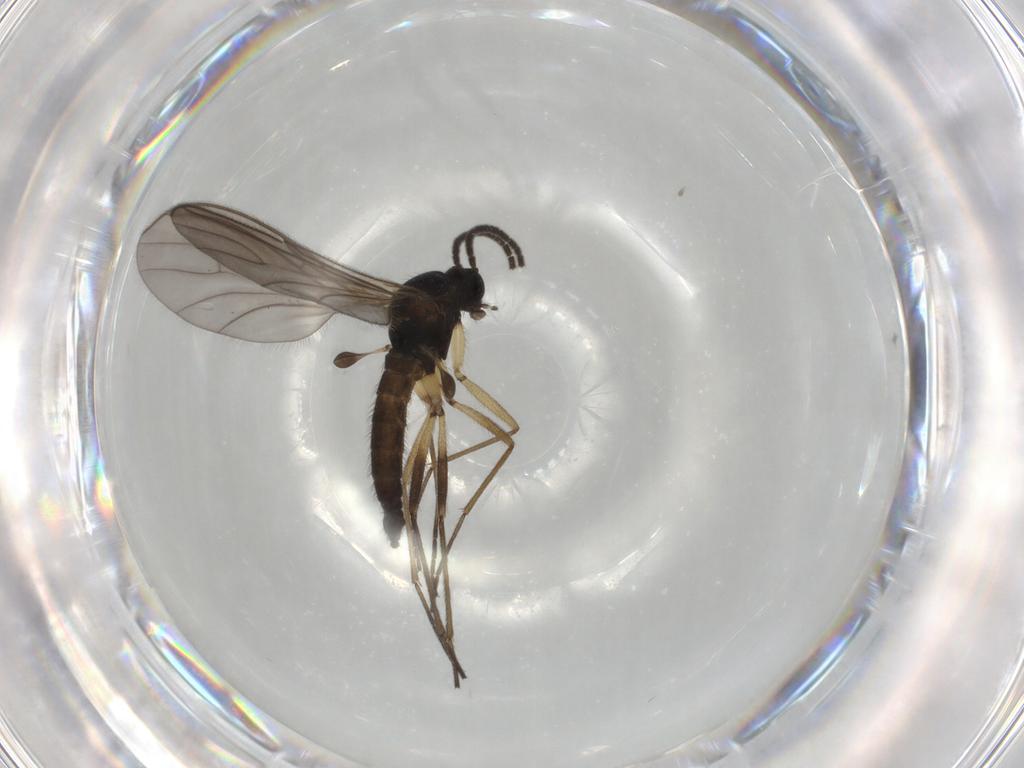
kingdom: Animalia
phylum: Arthropoda
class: Insecta
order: Diptera
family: Sciaridae
